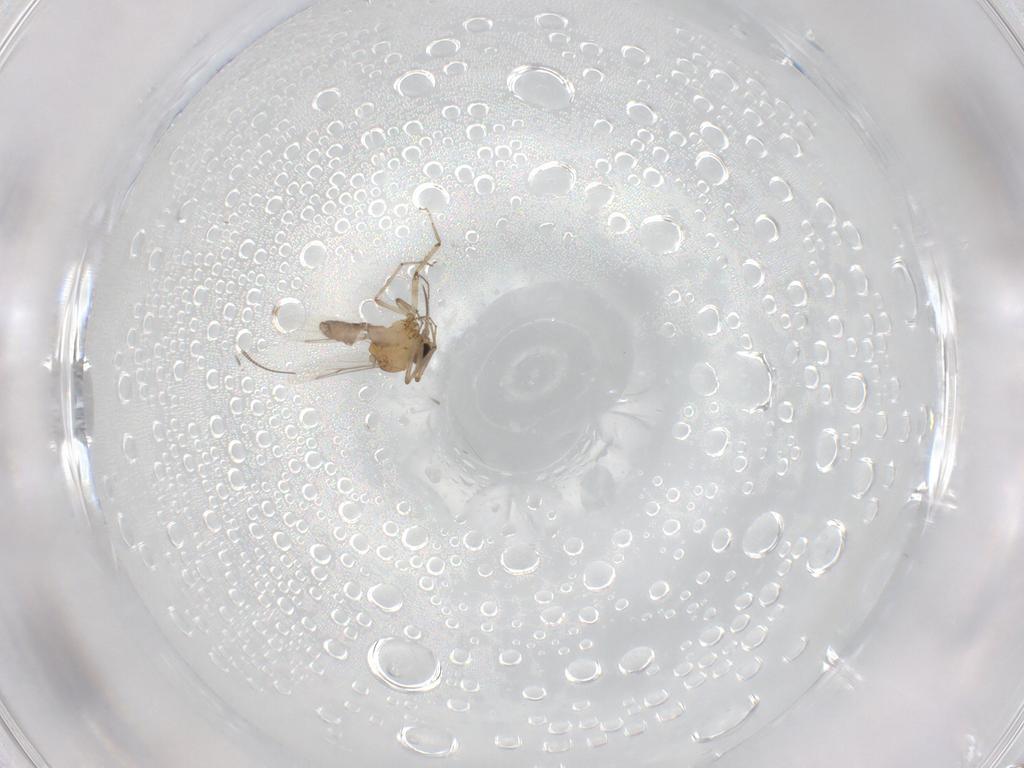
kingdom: Animalia
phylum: Arthropoda
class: Insecta
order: Diptera
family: Ceratopogonidae
